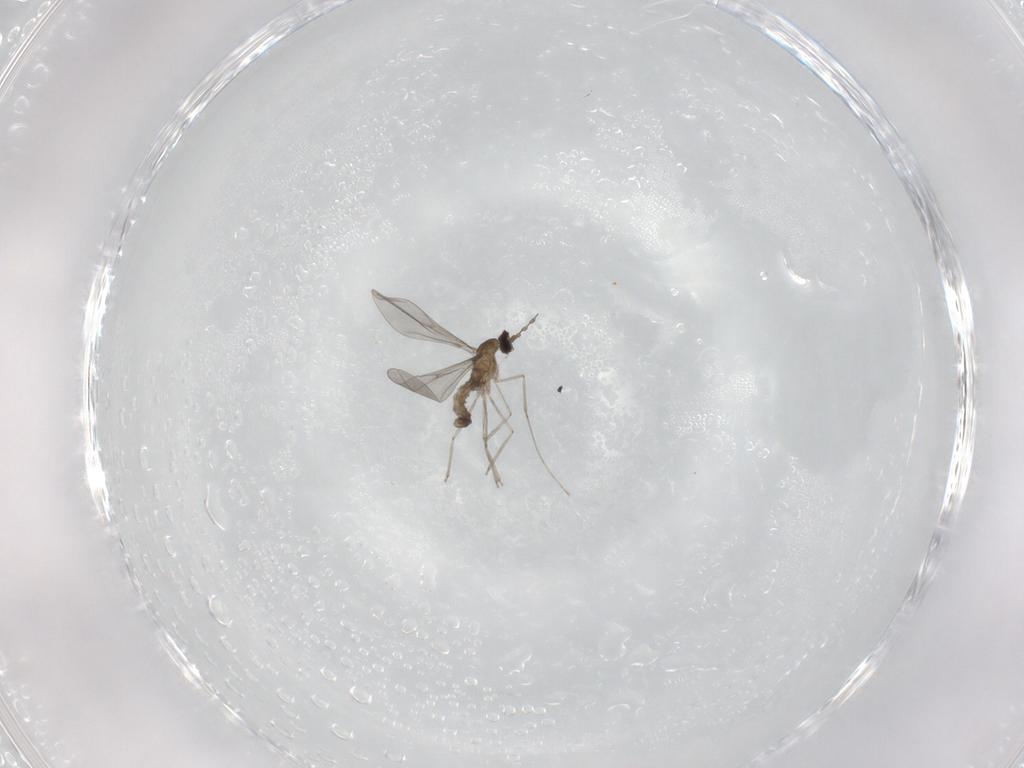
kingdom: Animalia
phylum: Arthropoda
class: Insecta
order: Diptera
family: Cecidomyiidae
